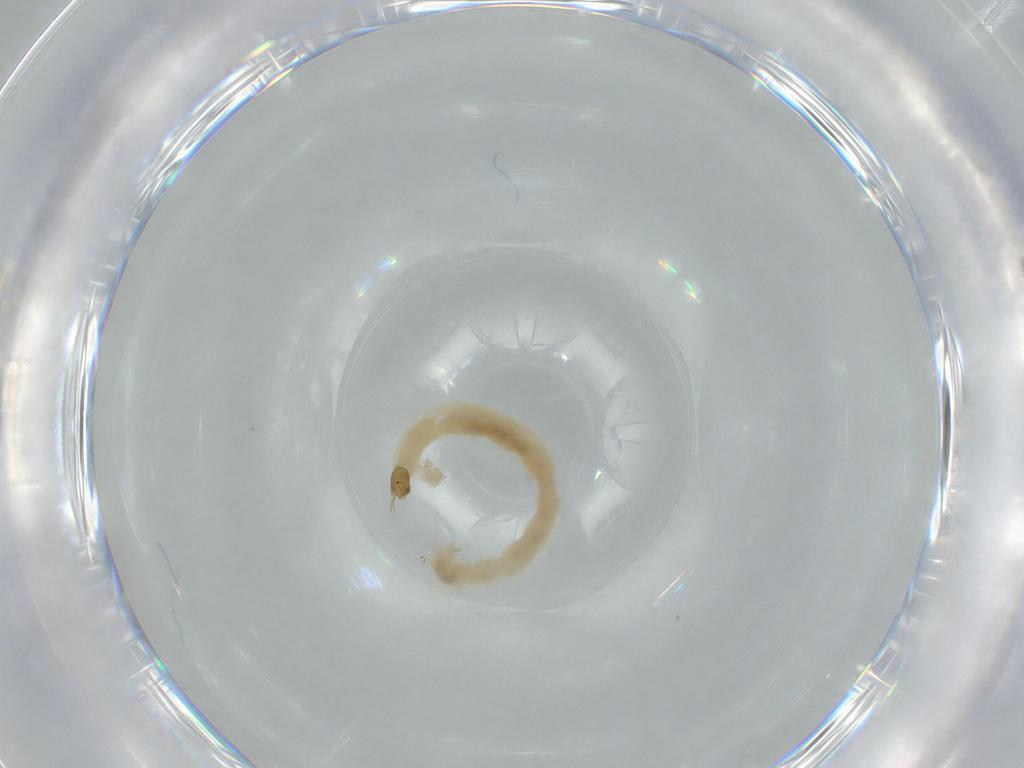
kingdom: Animalia
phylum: Arthropoda
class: Insecta
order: Diptera
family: Chironomidae
